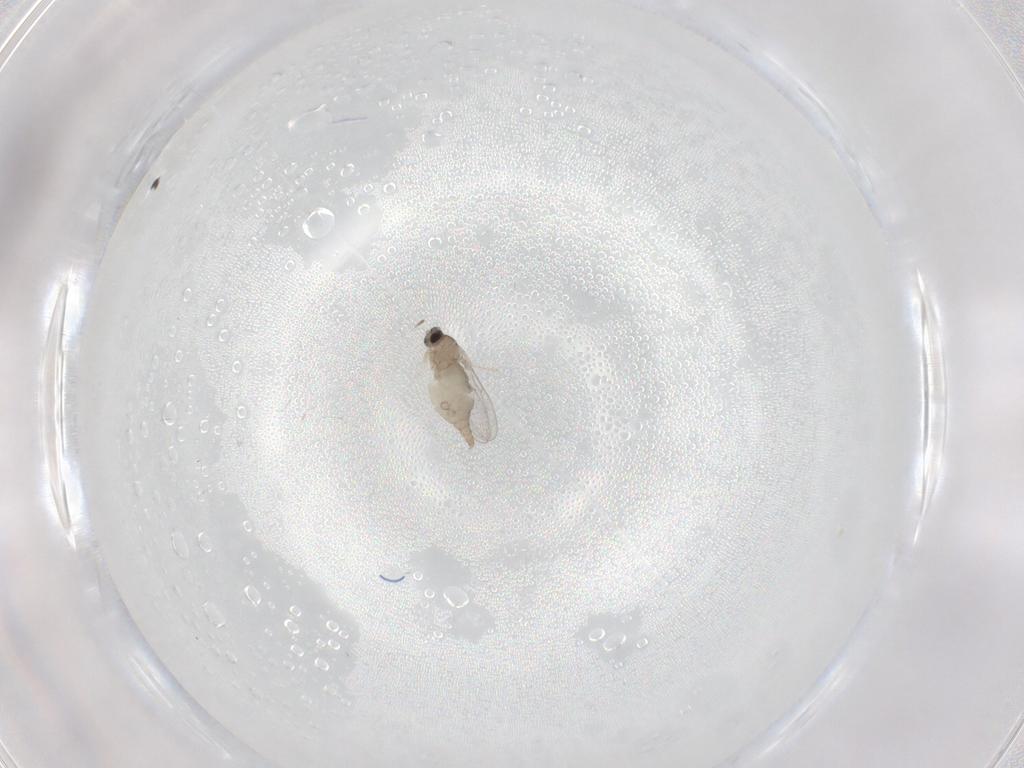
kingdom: Animalia
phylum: Arthropoda
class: Insecta
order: Diptera
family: Cecidomyiidae
